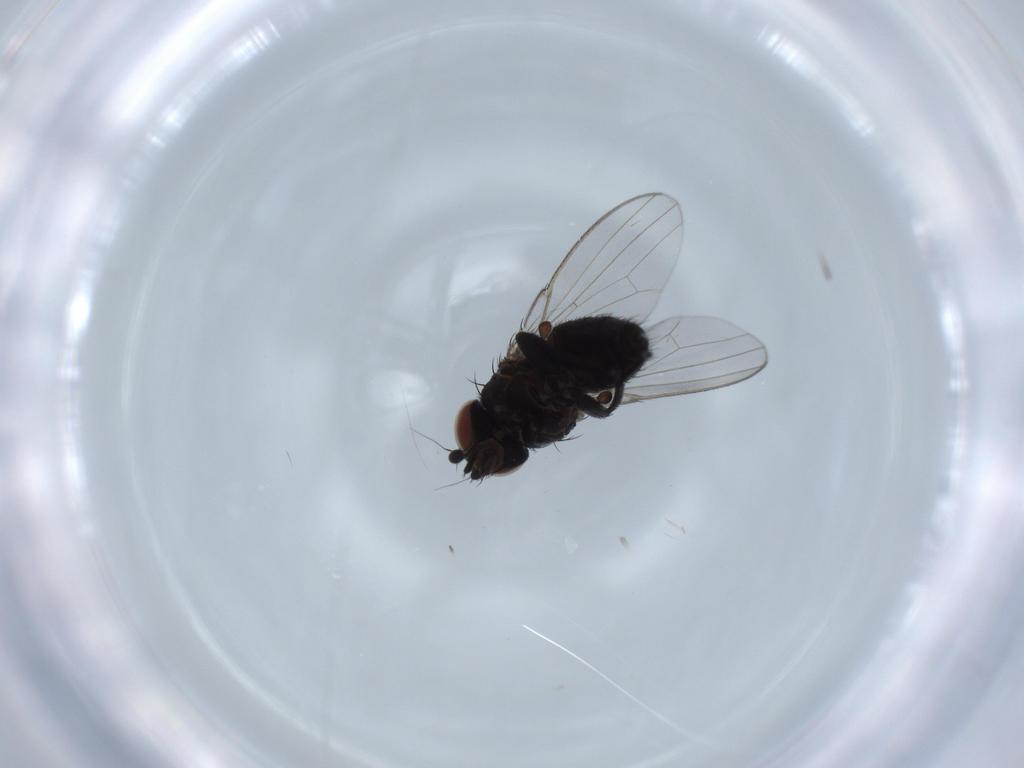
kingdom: Animalia
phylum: Arthropoda
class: Insecta
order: Diptera
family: Milichiidae
